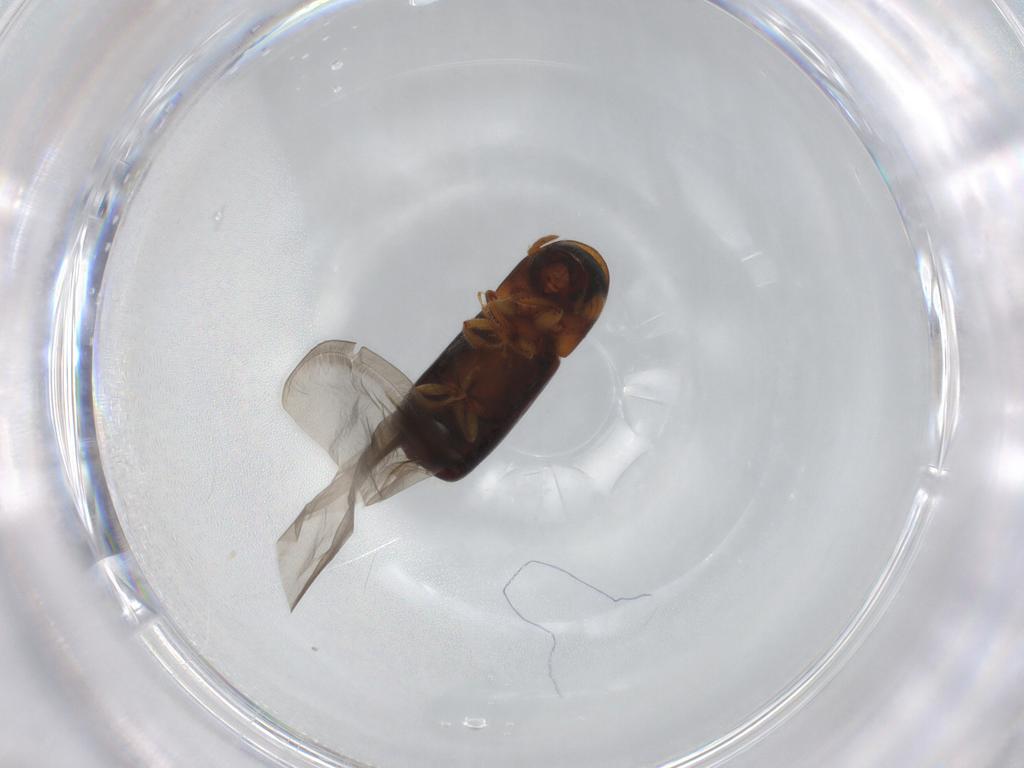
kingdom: Animalia
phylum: Arthropoda
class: Insecta
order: Coleoptera
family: Curculionidae
